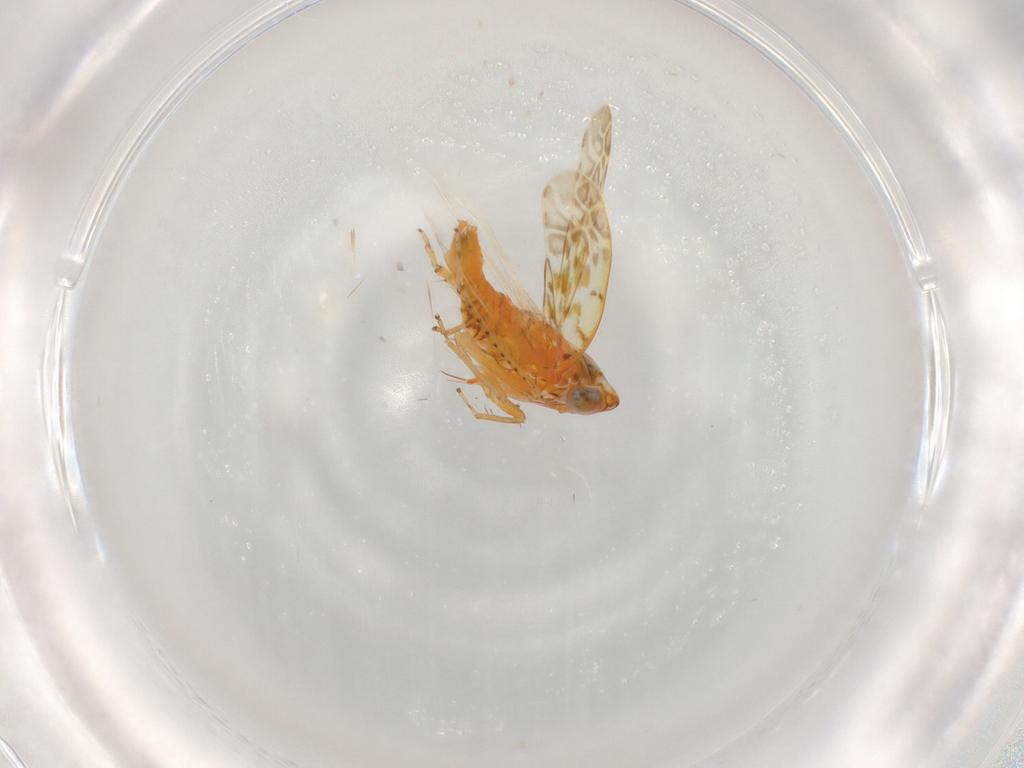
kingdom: Animalia
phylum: Arthropoda
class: Insecta
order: Hemiptera
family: Cicadellidae
